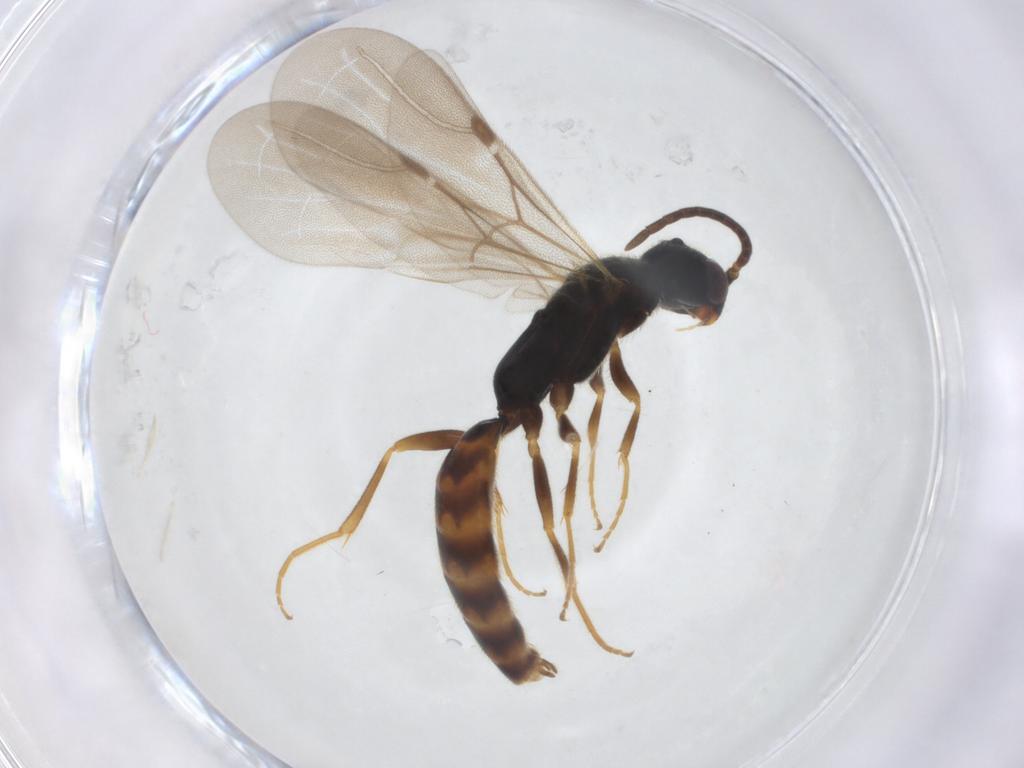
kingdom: Animalia
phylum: Arthropoda
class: Insecta
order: Hymenoptera
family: Bethylidae
